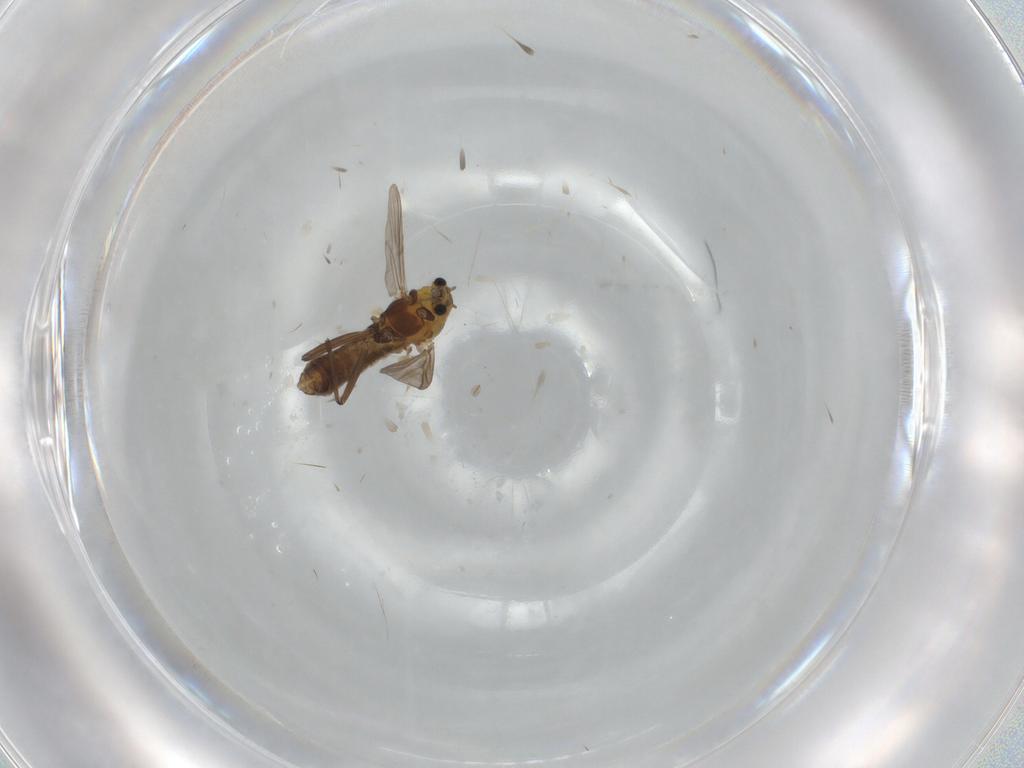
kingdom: Animalia
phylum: Arthropoda
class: Insecta
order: Diptera
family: Chironomidae
